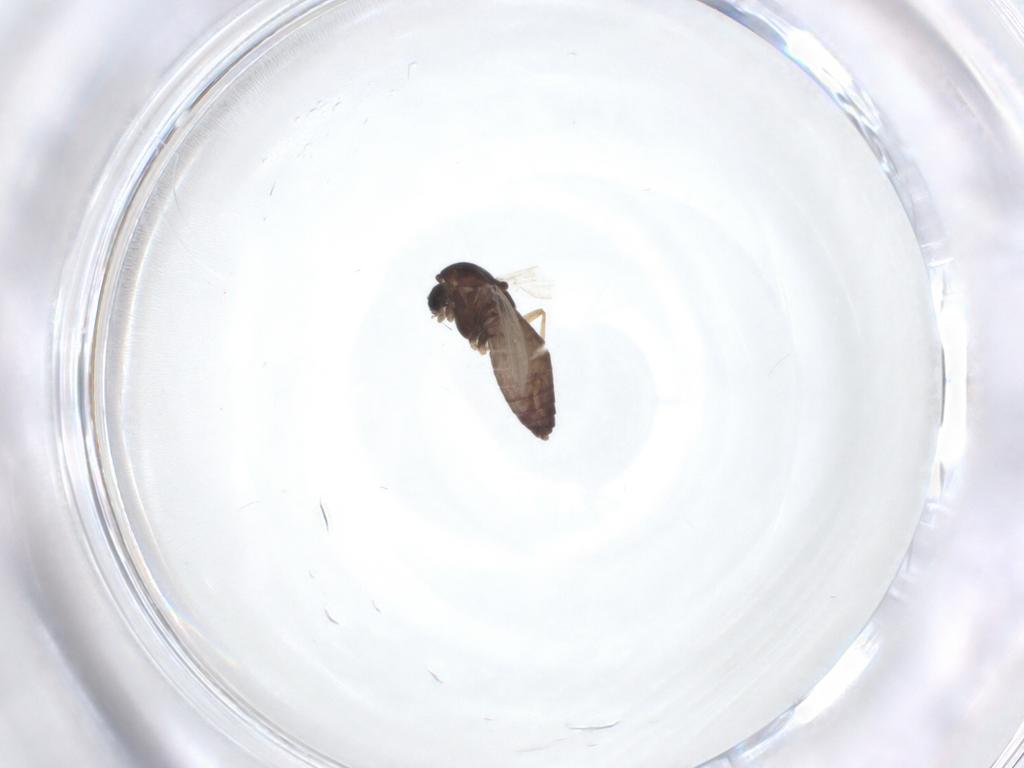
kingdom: Animalia
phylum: Arthropoda
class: Insecta
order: Diptera
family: Chironomidae
